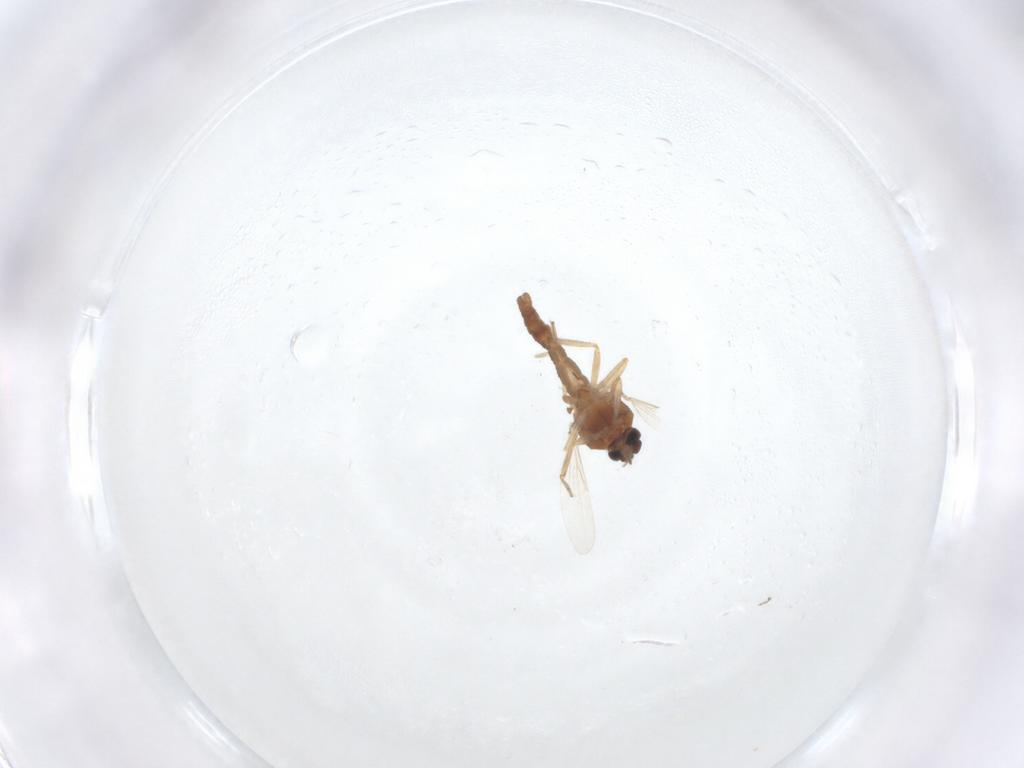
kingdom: Animalia
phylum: Arthropoda
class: Insecta
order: Diptera
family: Ceratopogonidae
